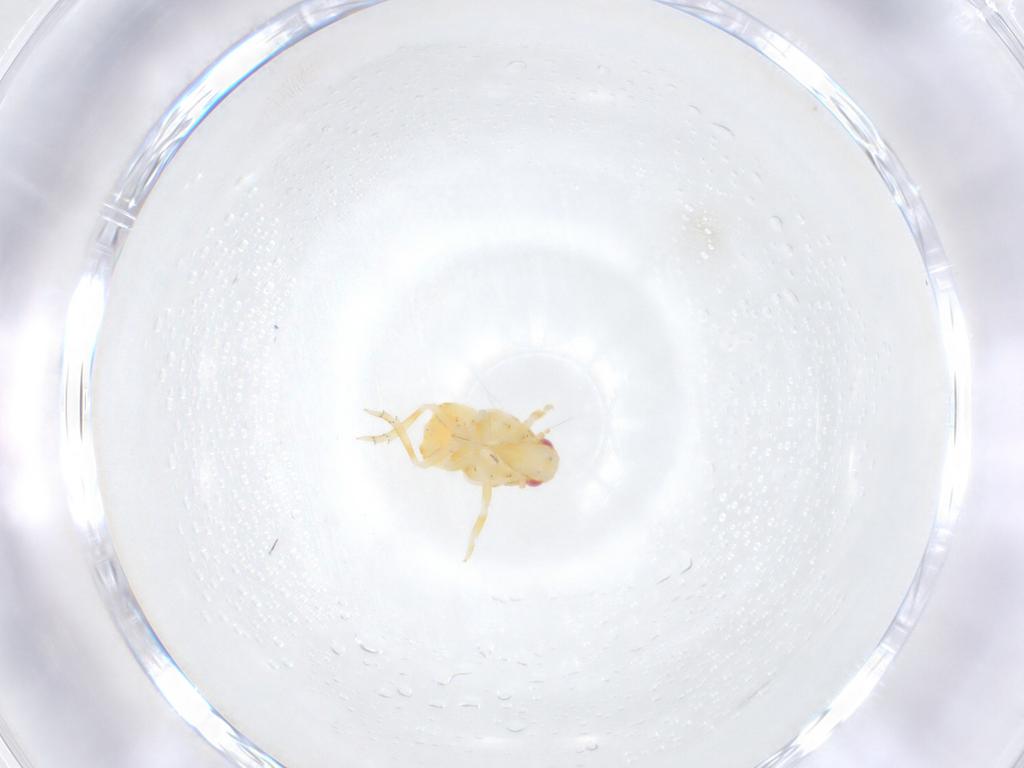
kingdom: Animalia
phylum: Arthropoda
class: Insecta
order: Hemiptera
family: Fulgoroidea_incertae_sedis
